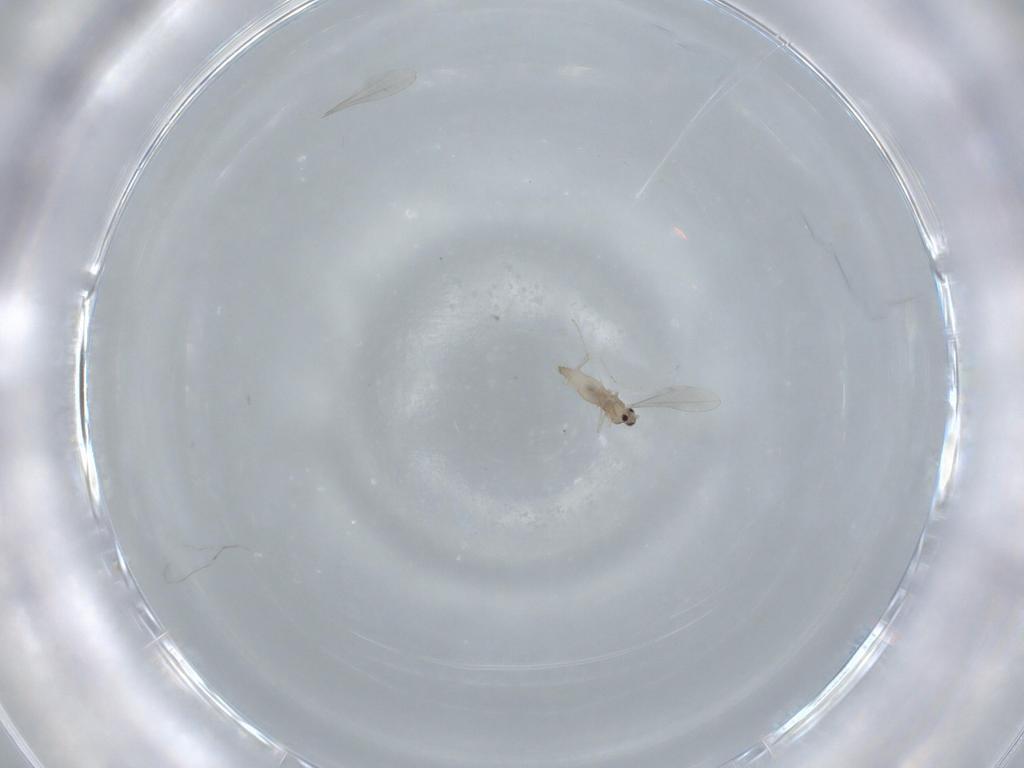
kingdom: Animalia
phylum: Arthropoda
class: Insecta
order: Diptera
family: Cecidomyiidae
